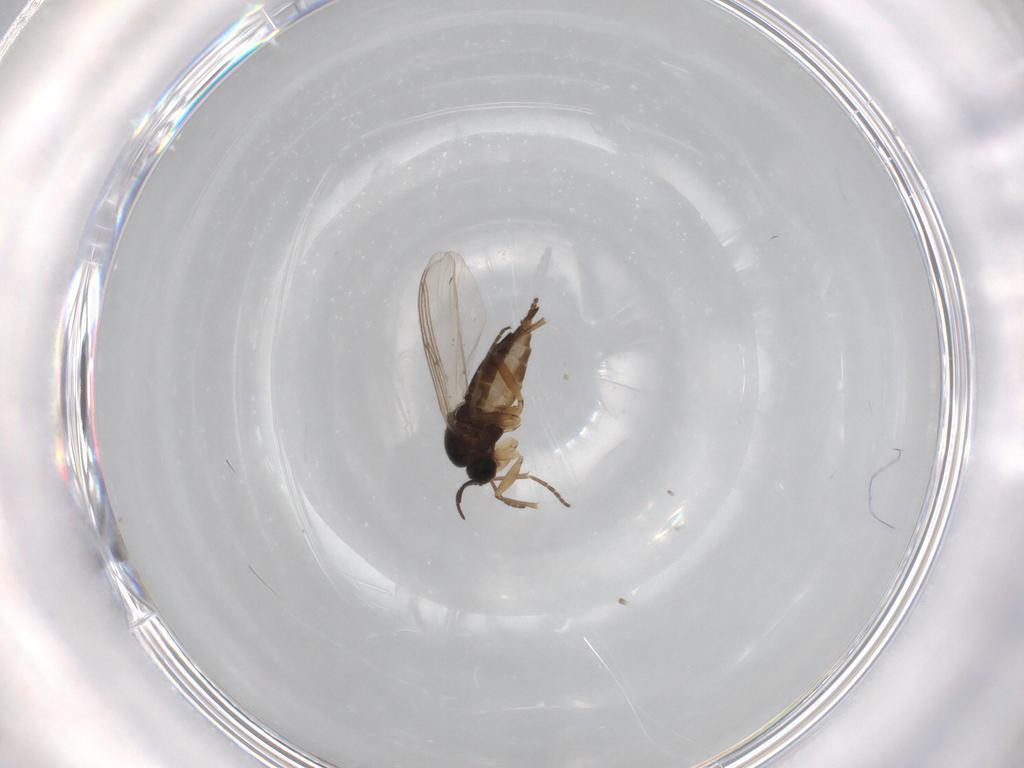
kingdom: Animalia
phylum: Arthropoda
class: Insecta
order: Diptera
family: Sciaridae
